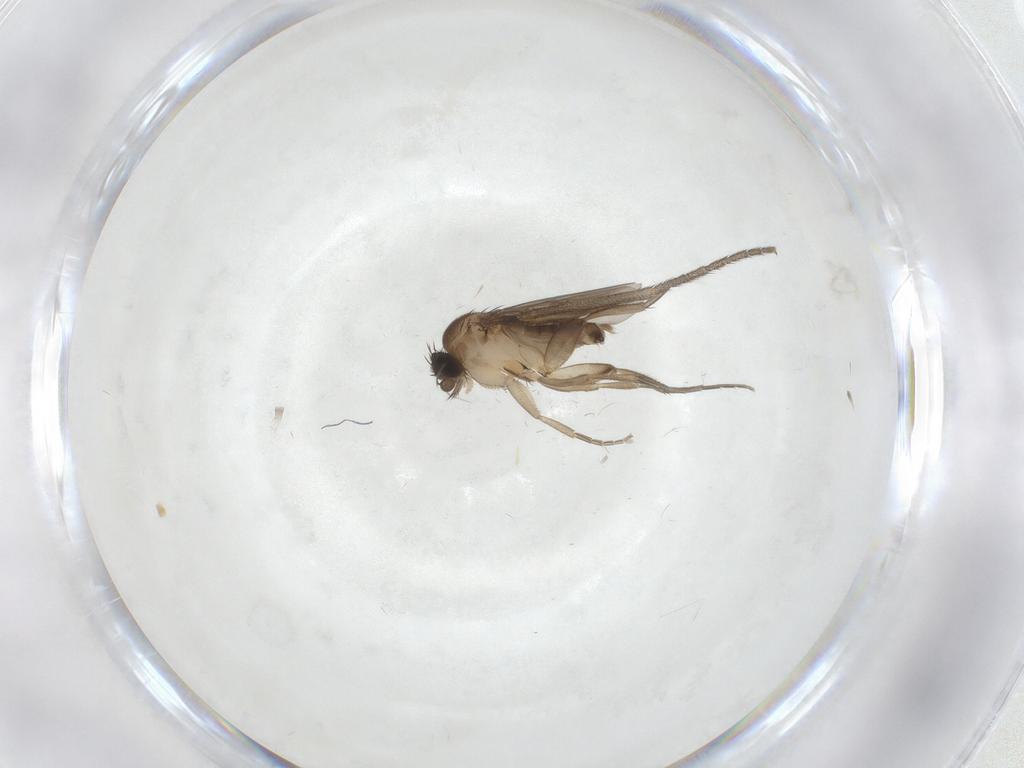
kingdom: Animalia
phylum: Arthropoda
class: Insecta
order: Diptera
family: Phoridae
